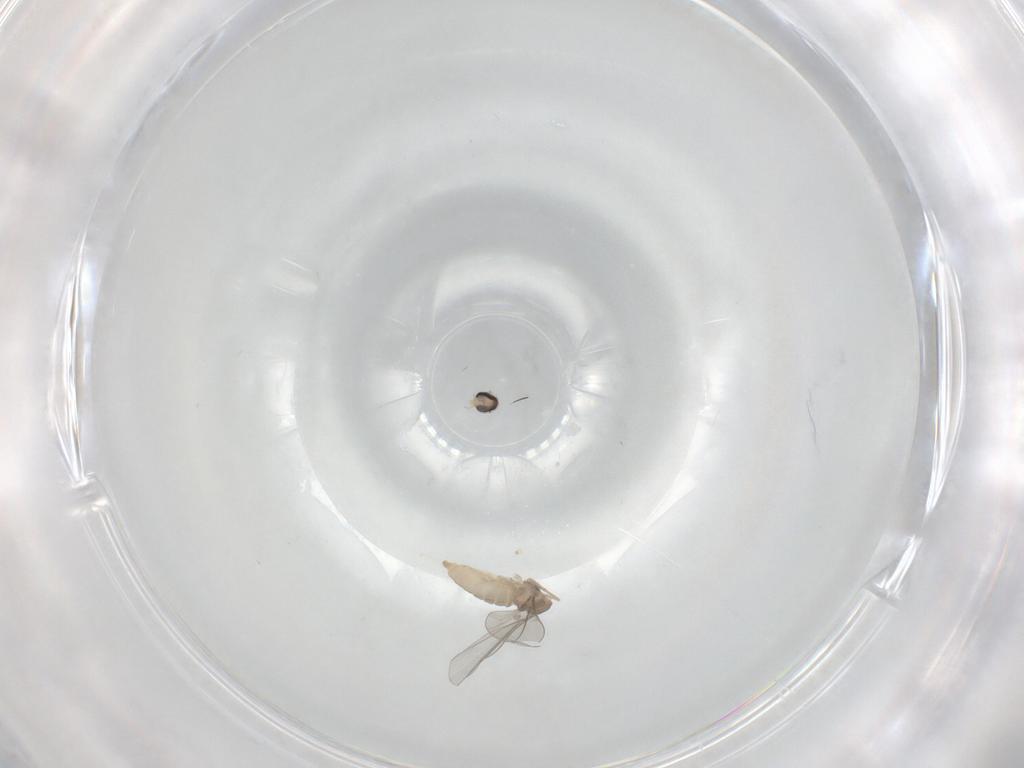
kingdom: Animalia
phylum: Arthropoda
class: Insecta
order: Diptera
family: Cecidomyiidae
